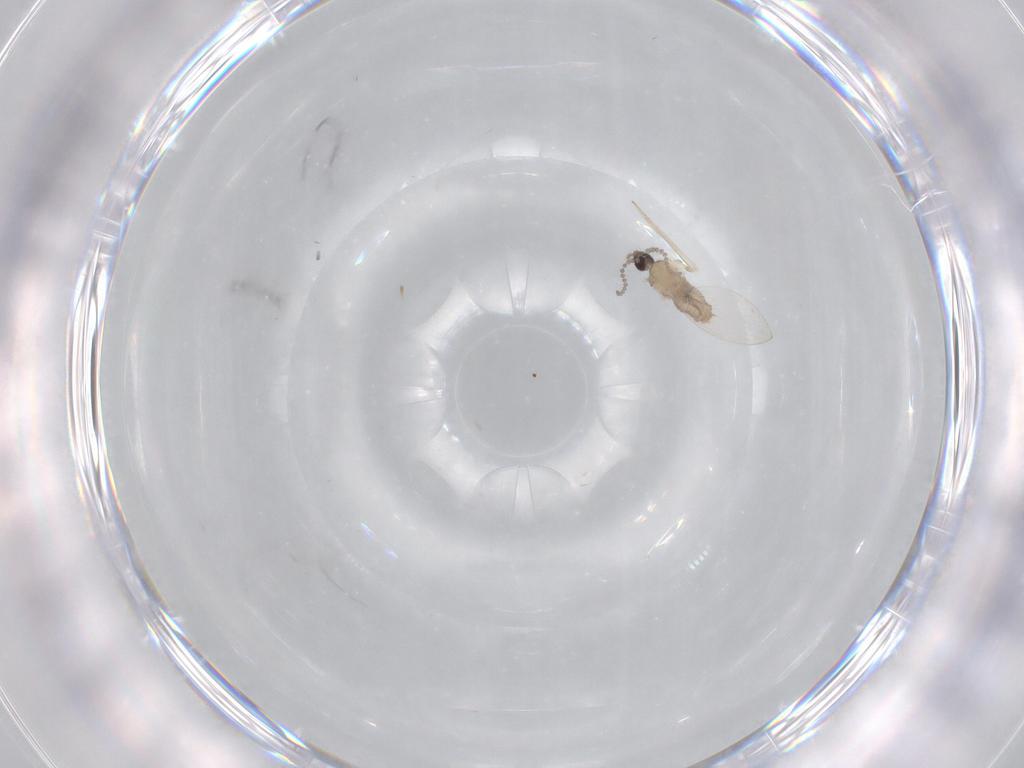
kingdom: Animalia
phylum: Arthropoda
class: Insecta
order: Diptera
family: Psychodidae
